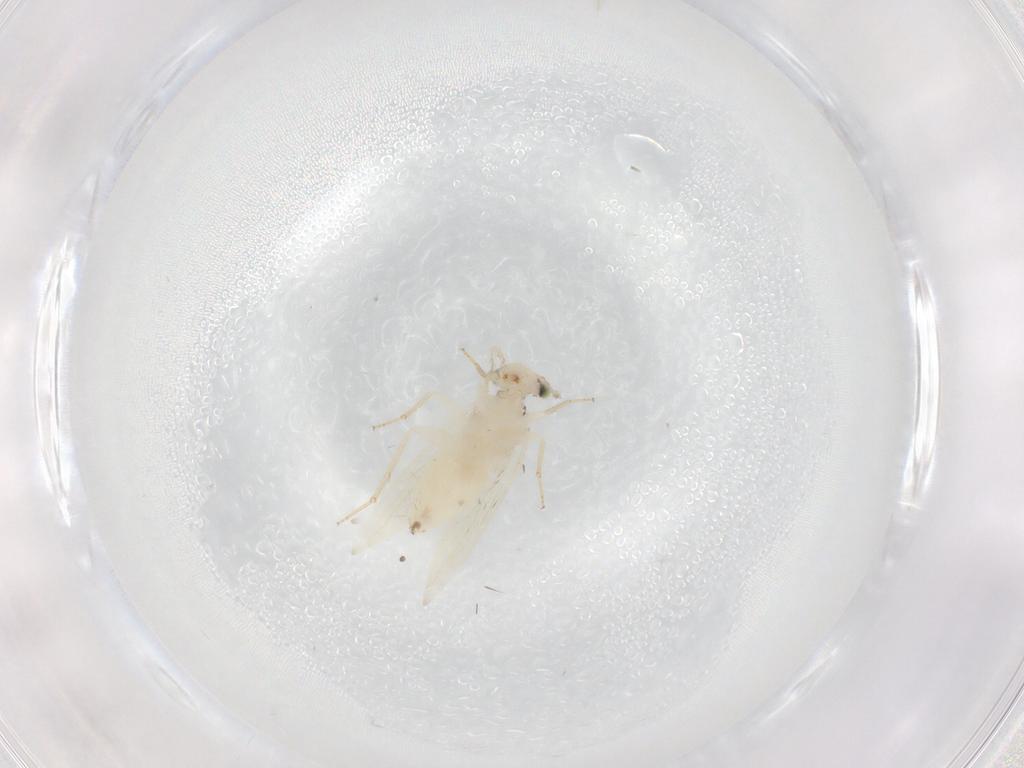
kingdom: Animalia
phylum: Arthropoda
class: Insecta
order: Psocodea
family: Lepidopsocidae
